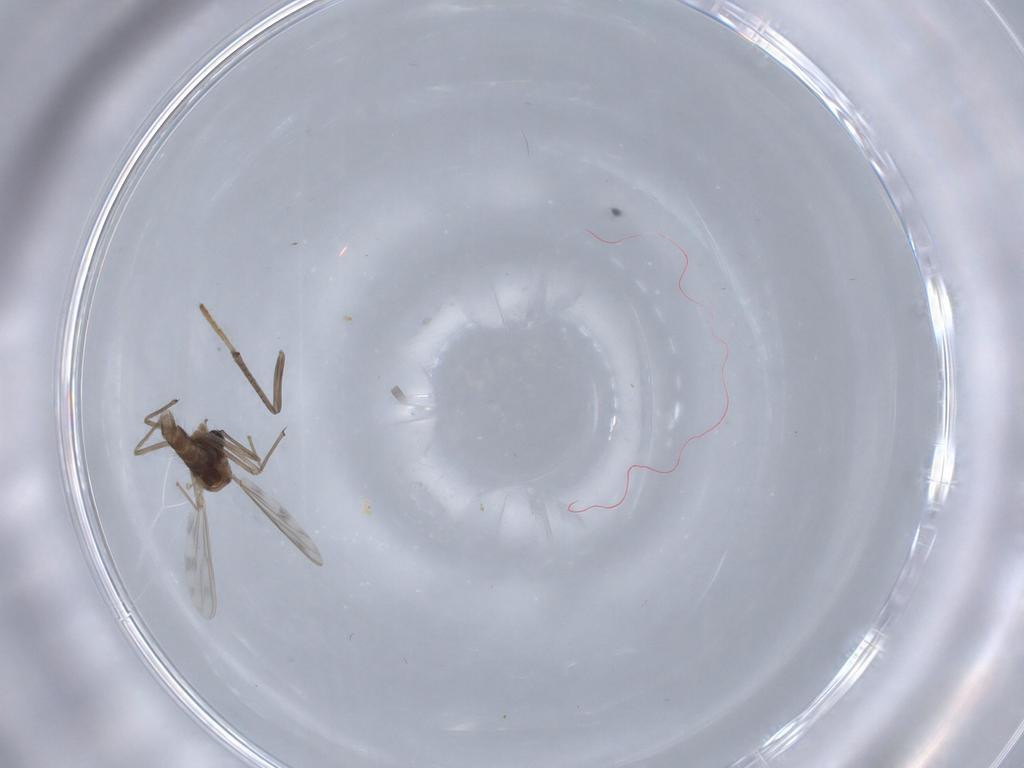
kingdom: Animalia
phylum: Arthropoda
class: Insecta
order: Diptera
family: Chironomidae
